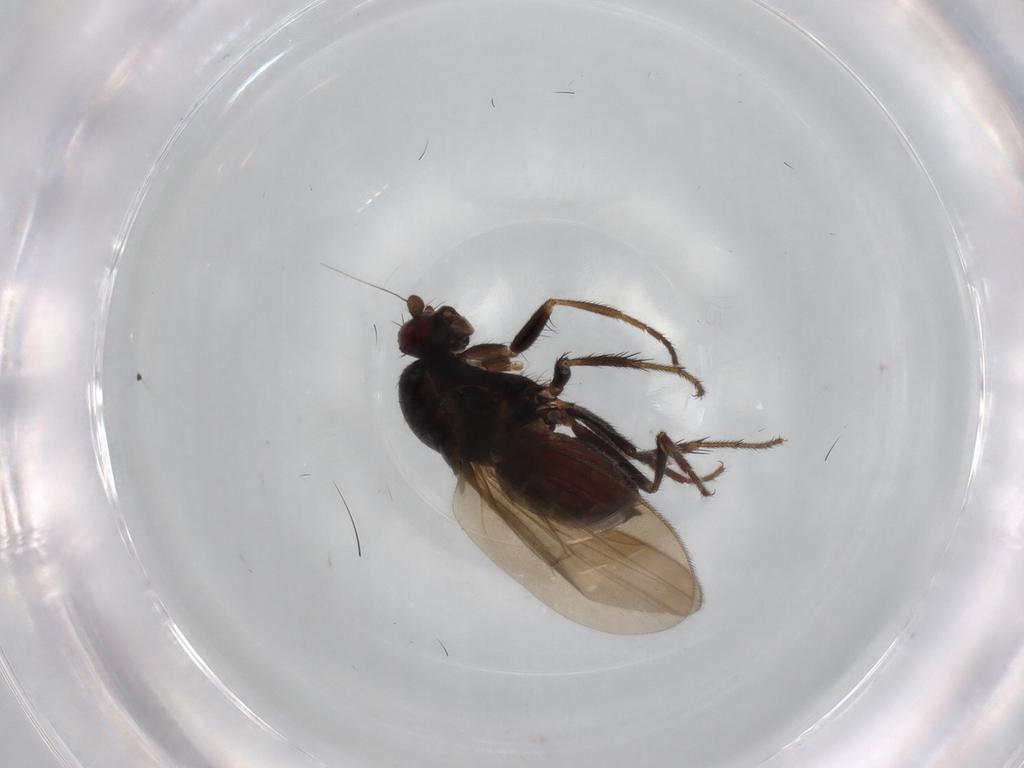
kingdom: Animalia
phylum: Arthropoda
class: Insecta
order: Diptera
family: Sphaeroceridae
